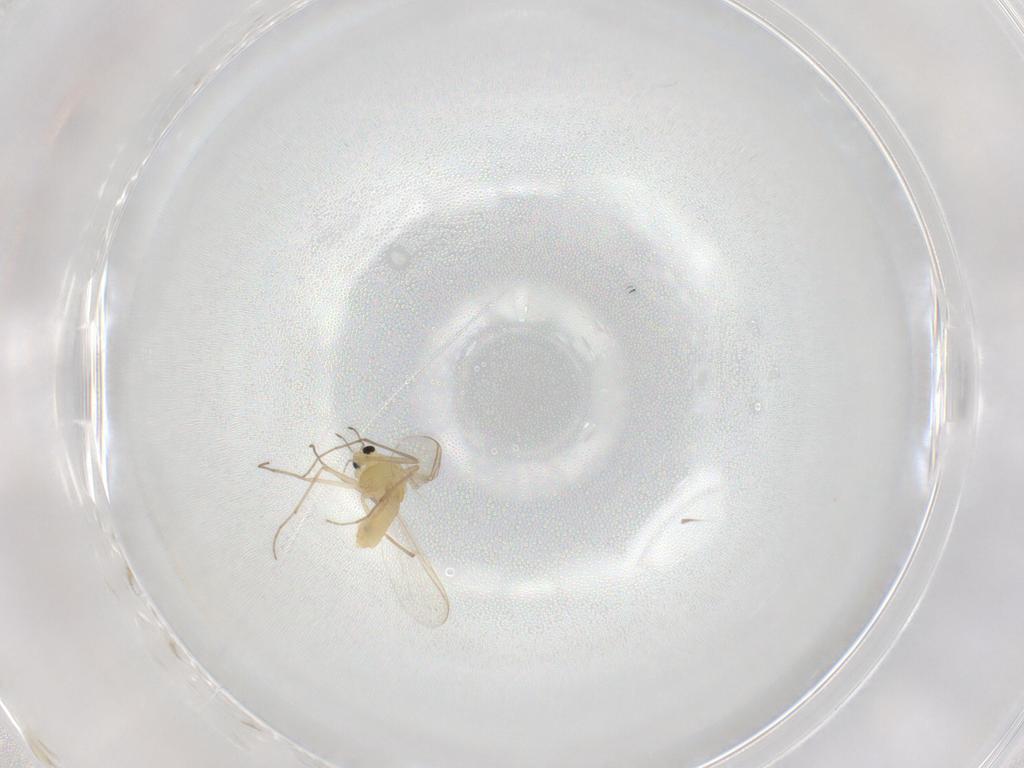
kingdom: Animalia
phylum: Arthropoda
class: Insecta
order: Diptera
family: Chironomidae
